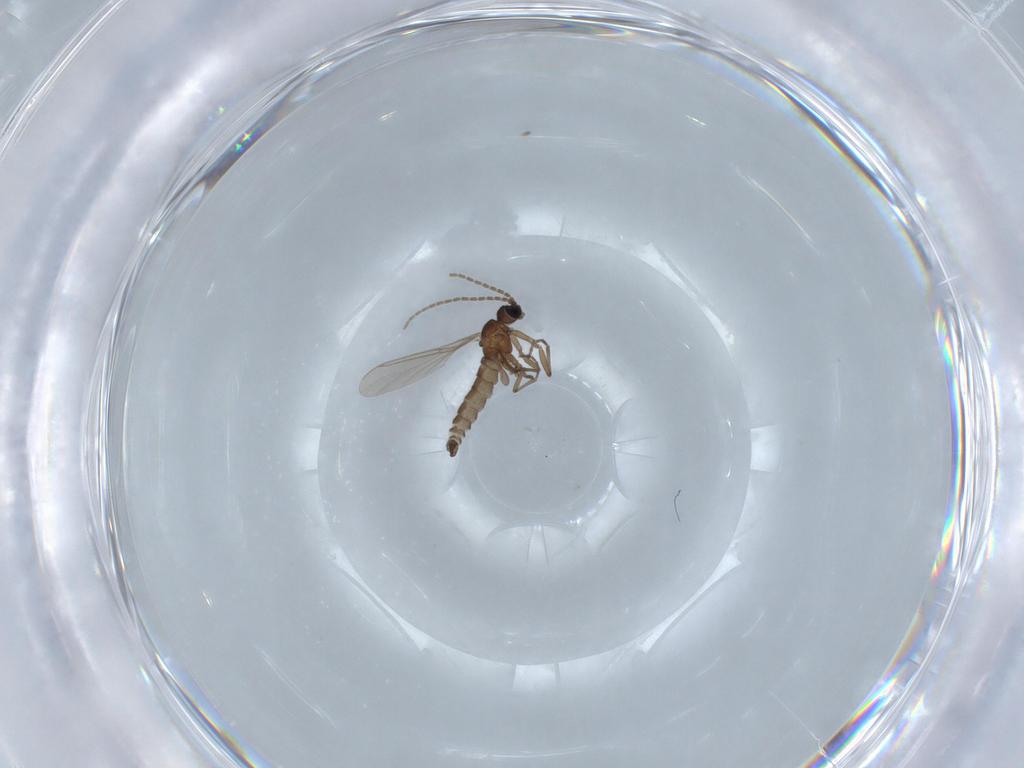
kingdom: Animalia
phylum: Arthropoda
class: Insecta
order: Diptera
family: Sciaridae
